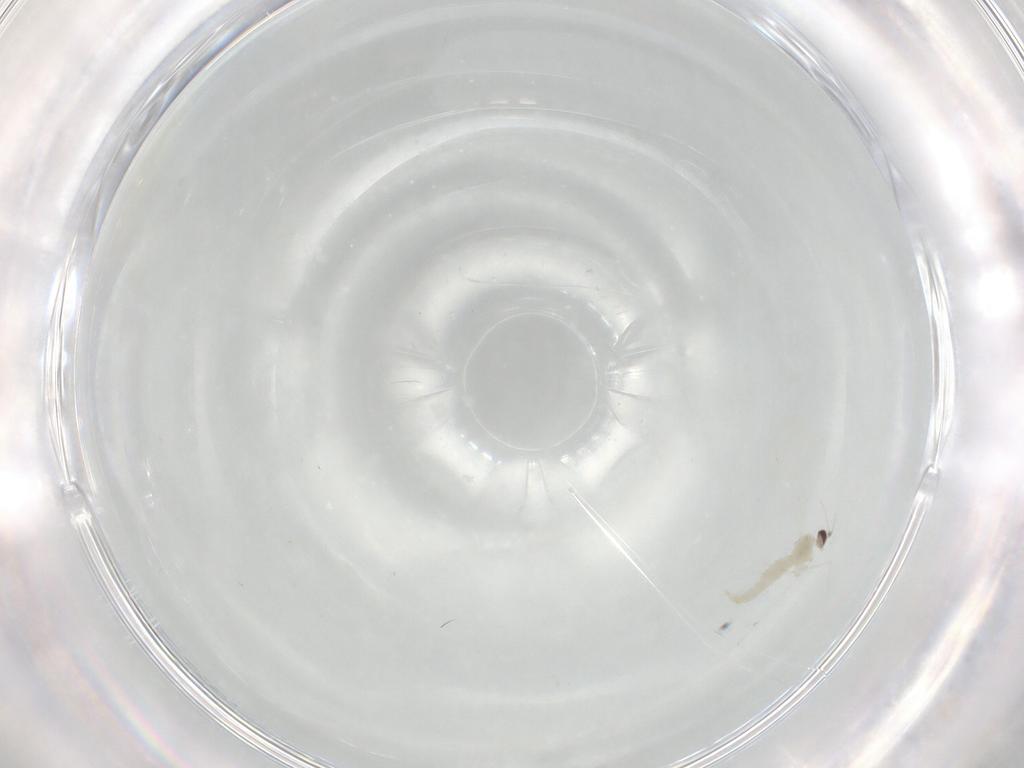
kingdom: Animalia
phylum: Arthropoda
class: Insecta
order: Diptera
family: Cecidomyiidae
